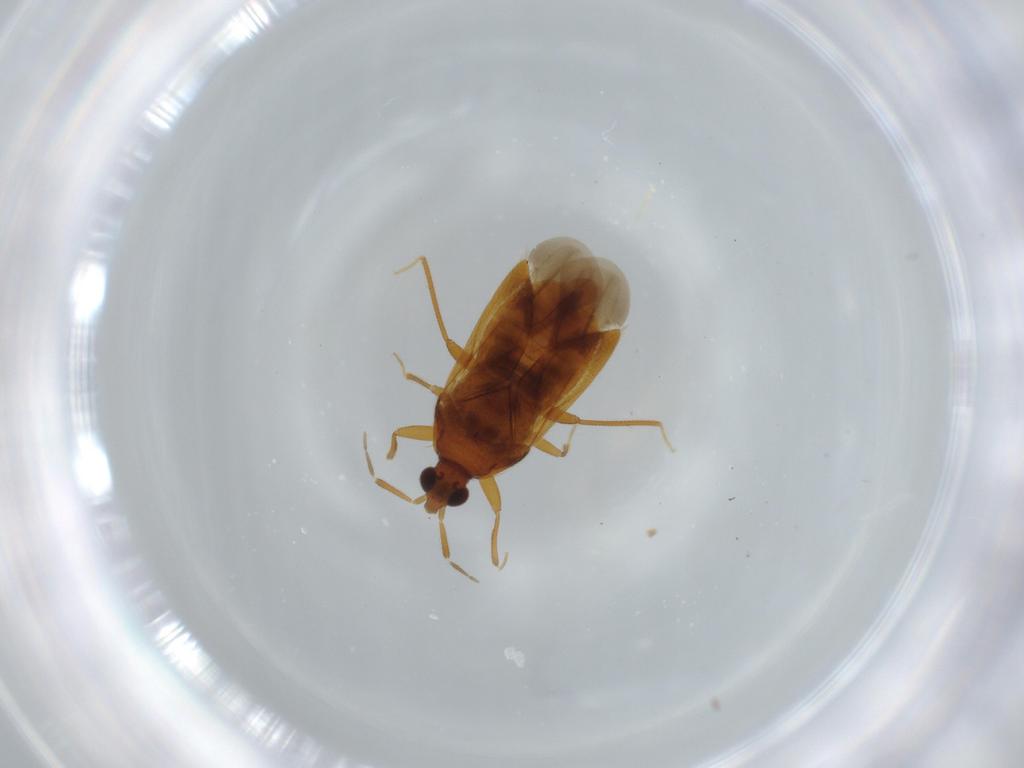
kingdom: Animalia
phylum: Arthropoda
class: Insecta
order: Hemiptera
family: Anthocoridae
